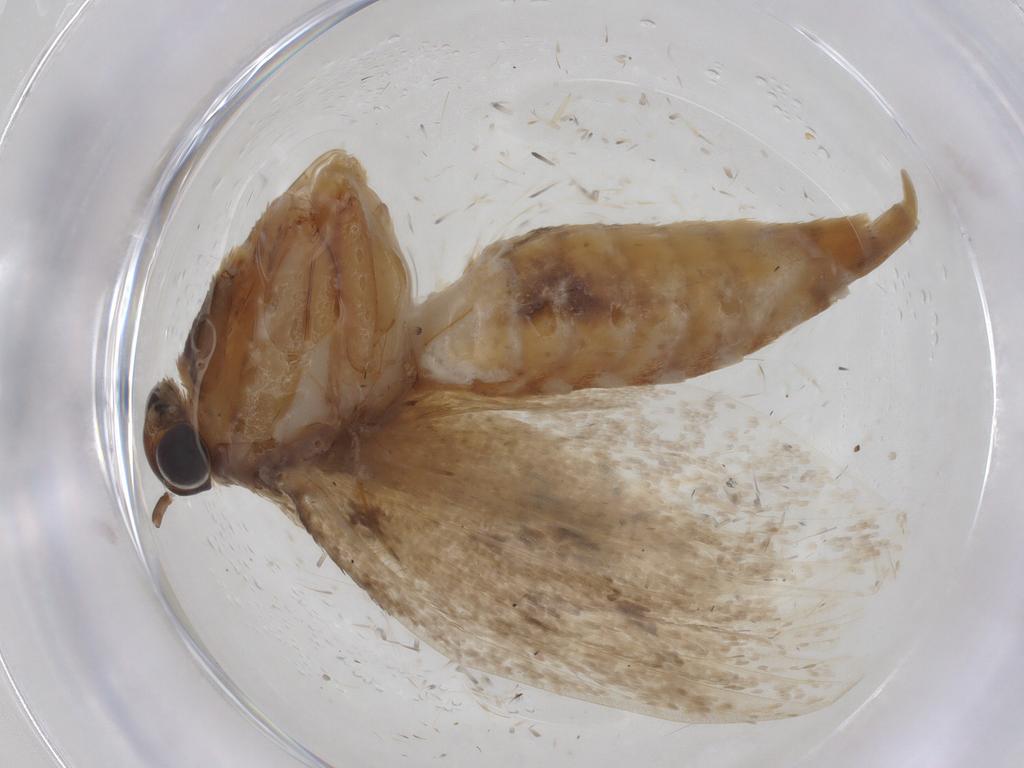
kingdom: Animalia
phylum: Arthropoda
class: Insecta
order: Lepidoptera
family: Oecophoridae
